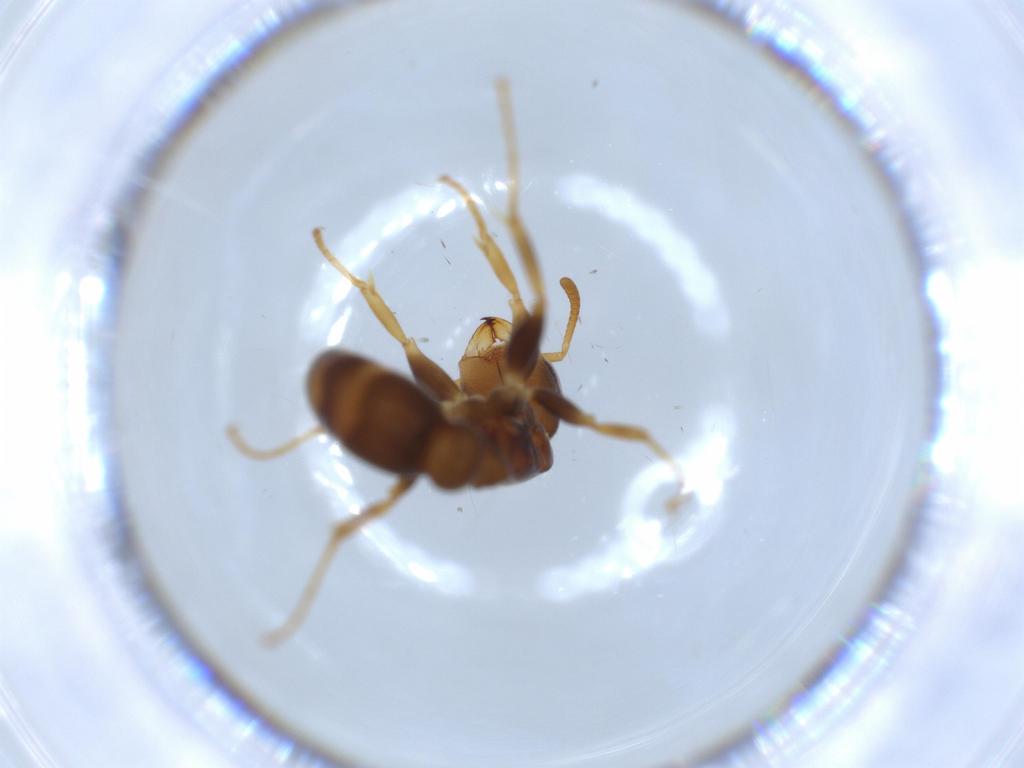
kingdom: Animalia
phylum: Arthropoda
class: Insecta
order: Hymenoptera
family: Formicidae
